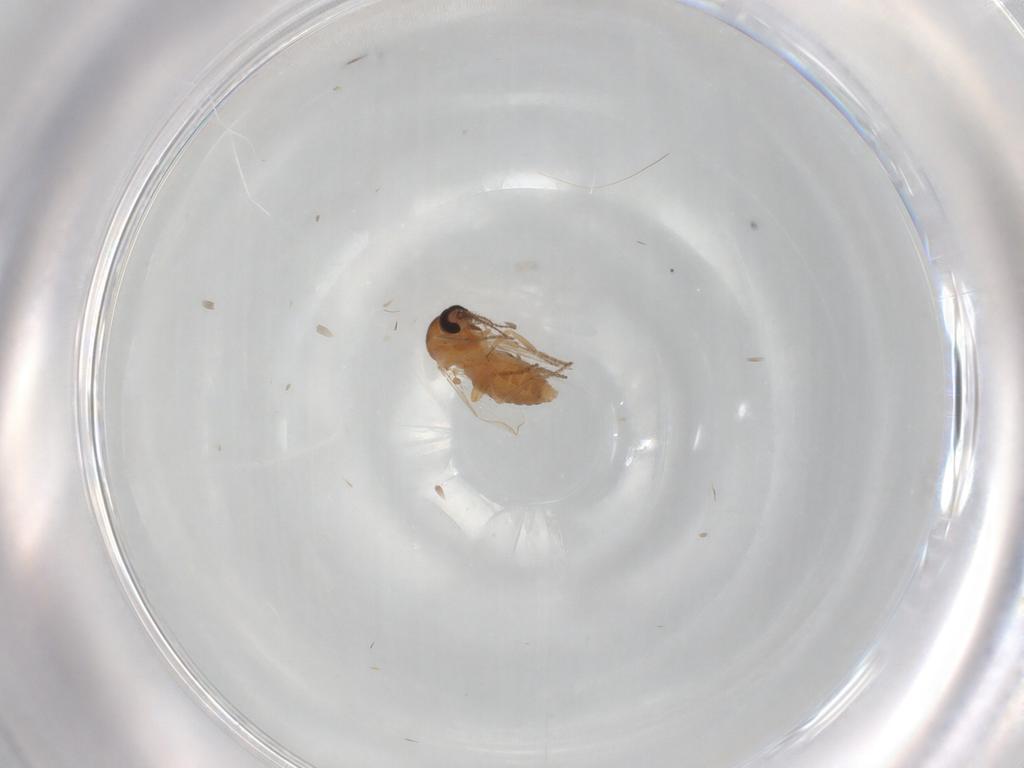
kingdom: Animalia
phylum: Arthropoda
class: Insecta
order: Diptera
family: Ceratopogonidae
